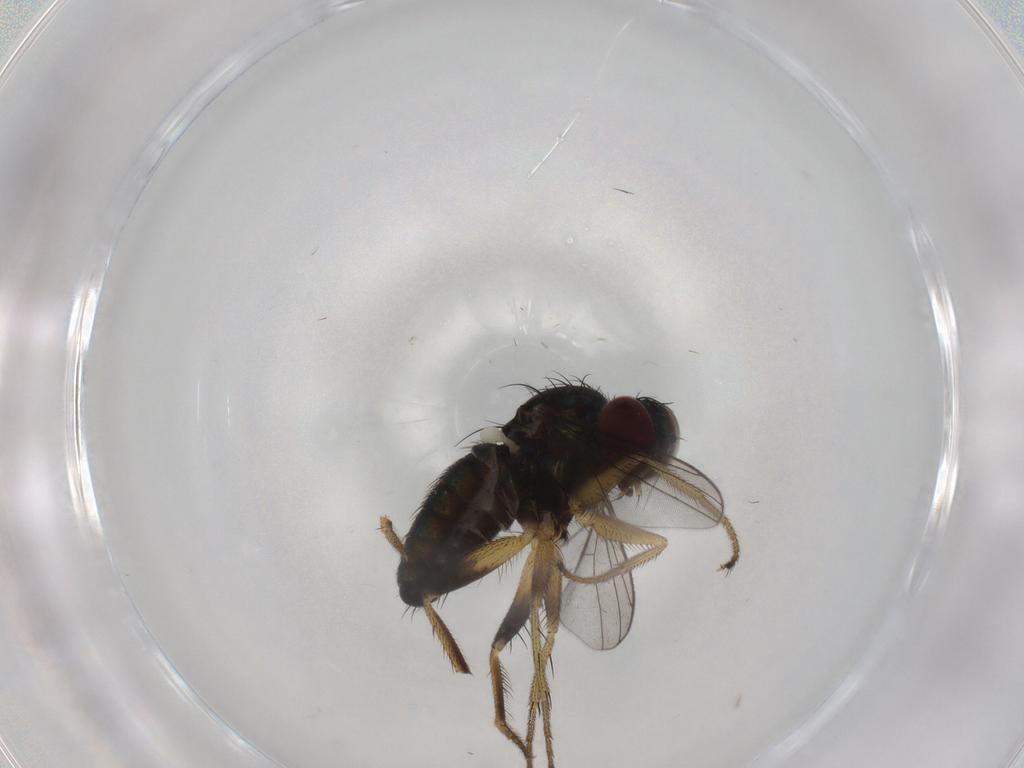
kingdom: Animalia
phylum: Arthropoda
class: Insecta
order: Diptera
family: Dolichopodidae
